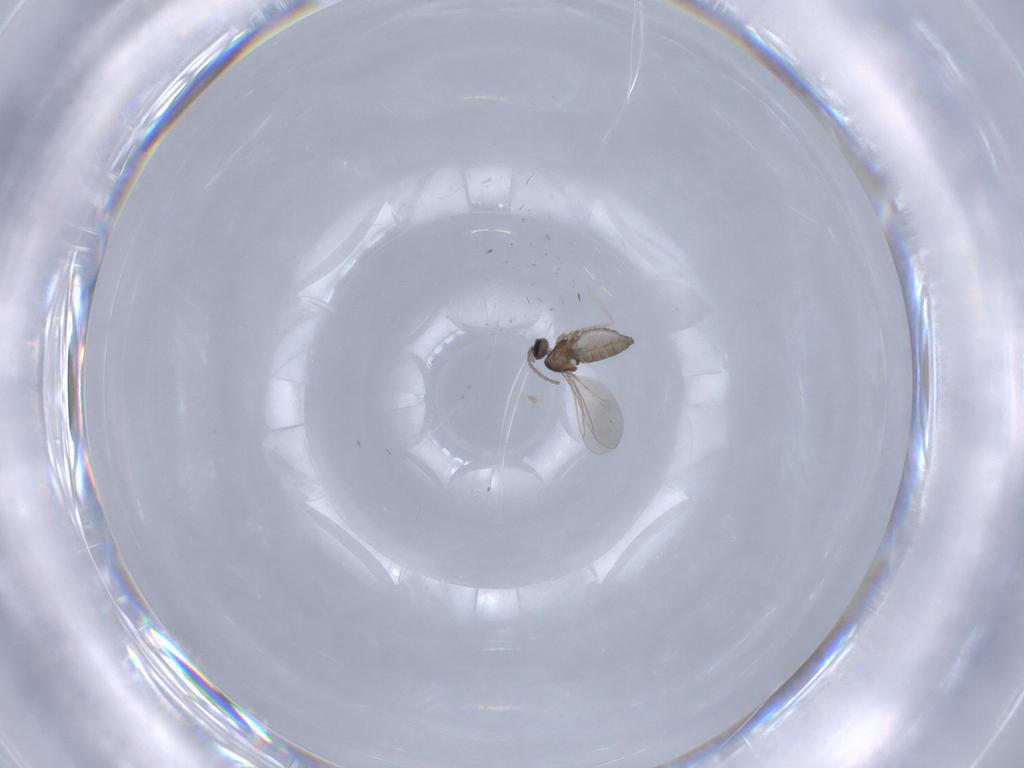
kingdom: Animalia
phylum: Arthropoda
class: Insecta
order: Diptera
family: Cecidomyiidae
